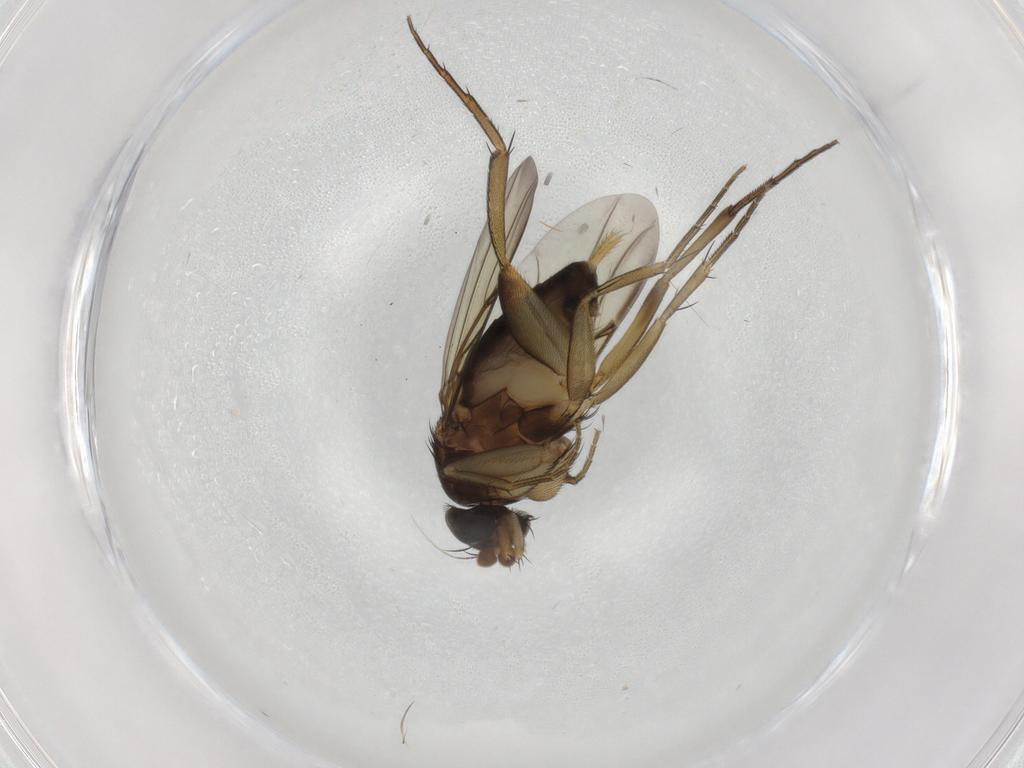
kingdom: Animalia
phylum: Arthropoda
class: Insecta
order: Diptera
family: Phoridae
